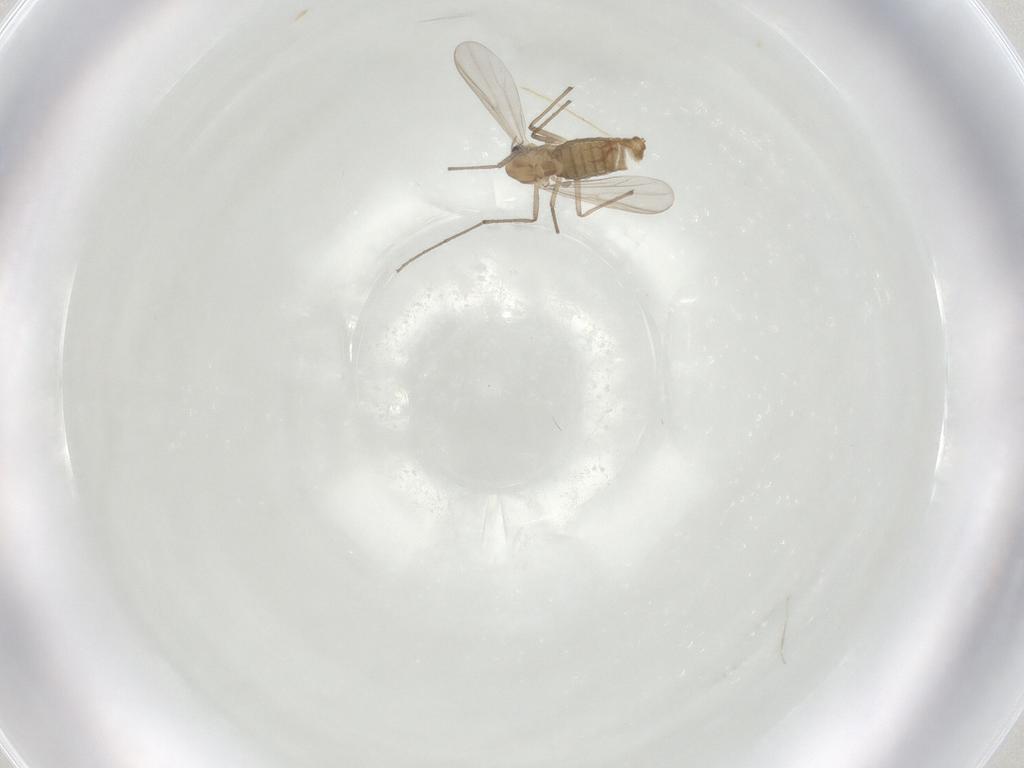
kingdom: Animalia
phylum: Arthropoda
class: Insecta
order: Diptera
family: Chironomidae
